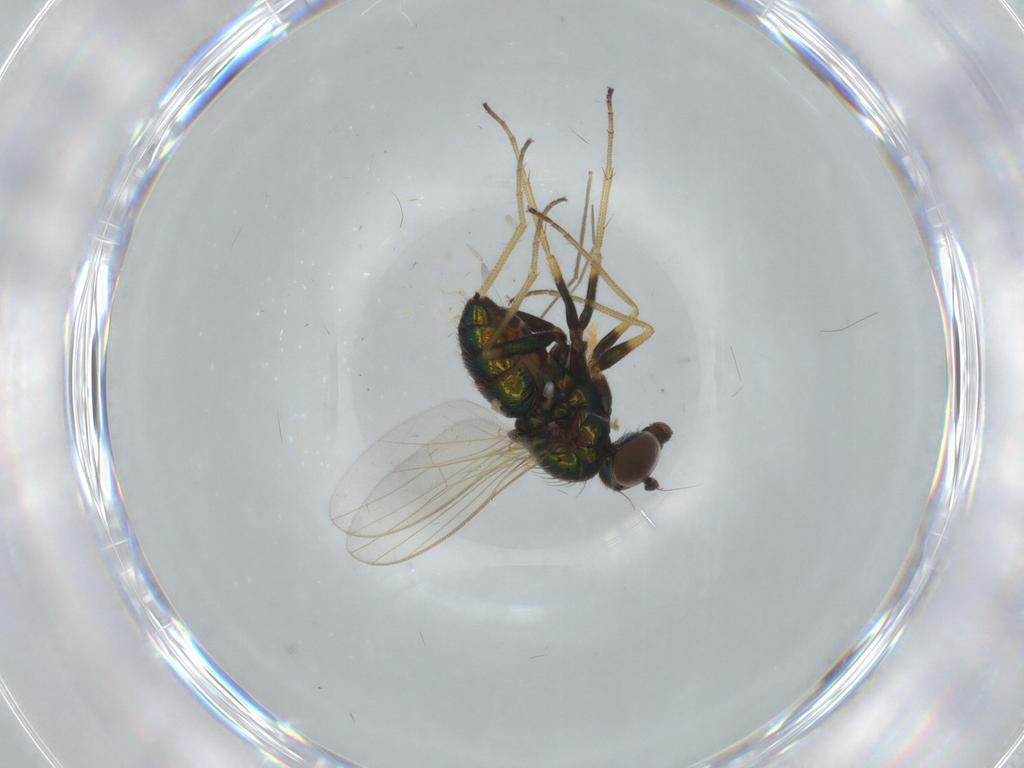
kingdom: Animalia
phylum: Arthropoda
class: Insecta
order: Diptera
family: Dolichopodidae
